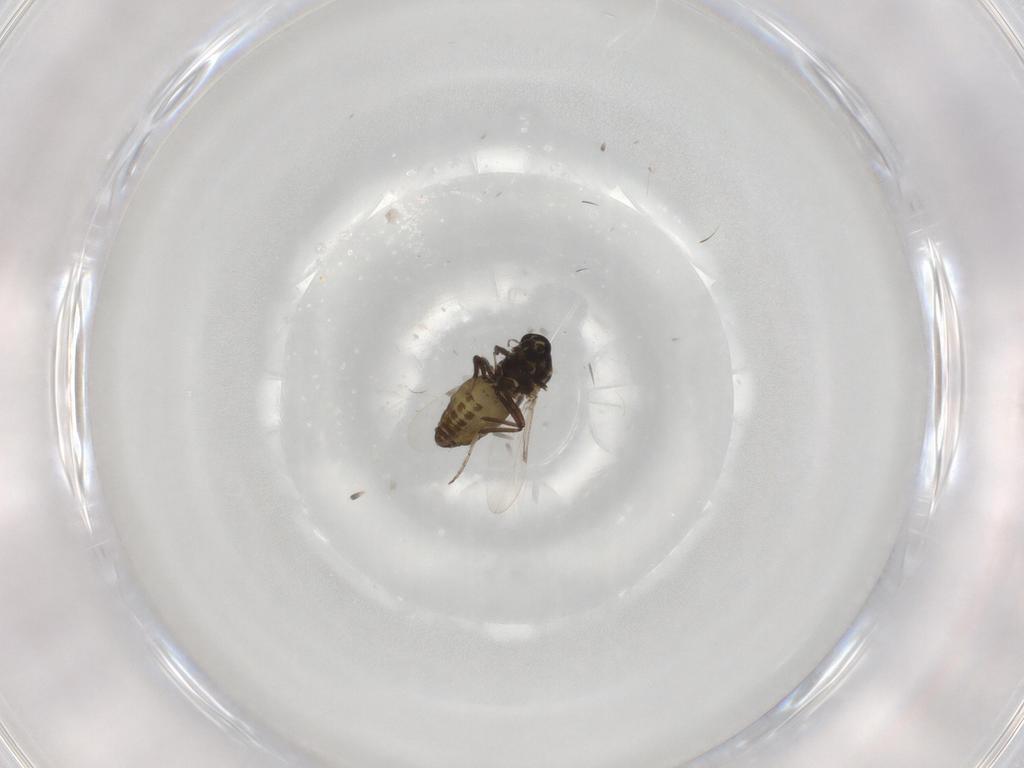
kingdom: Animalia
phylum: Arthropoda
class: Insecta
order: Diptera
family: Ceratopogonidae
